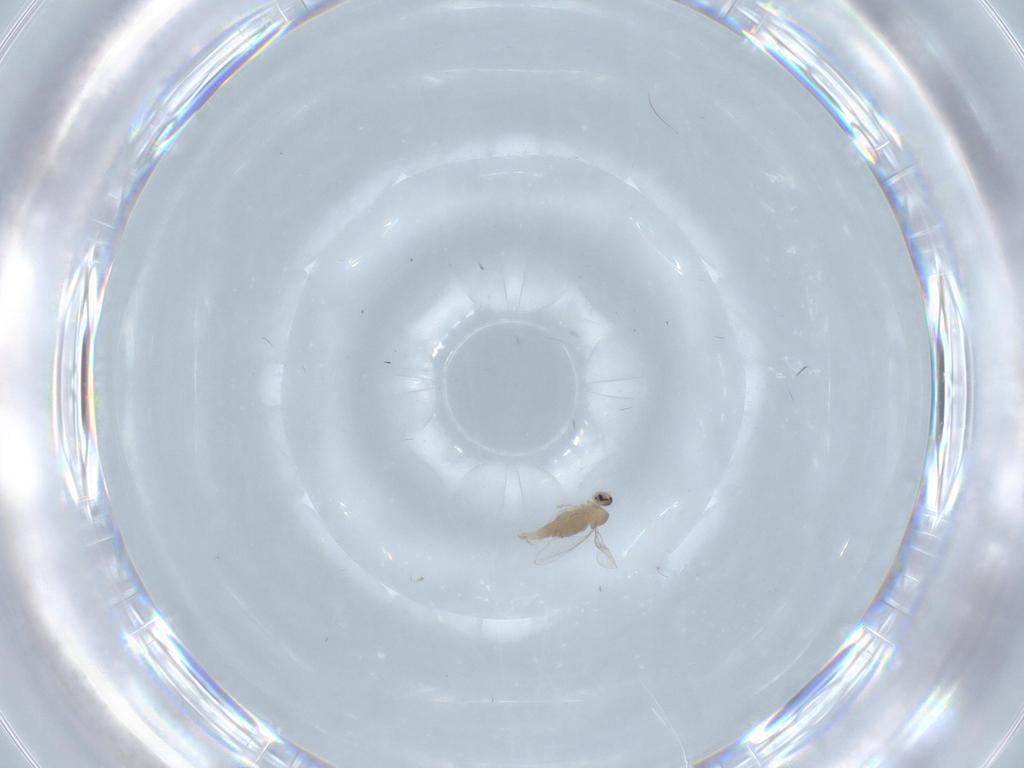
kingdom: Animalia
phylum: Arthropoda
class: Insecta
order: Diptera
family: Cecidomyiidae
